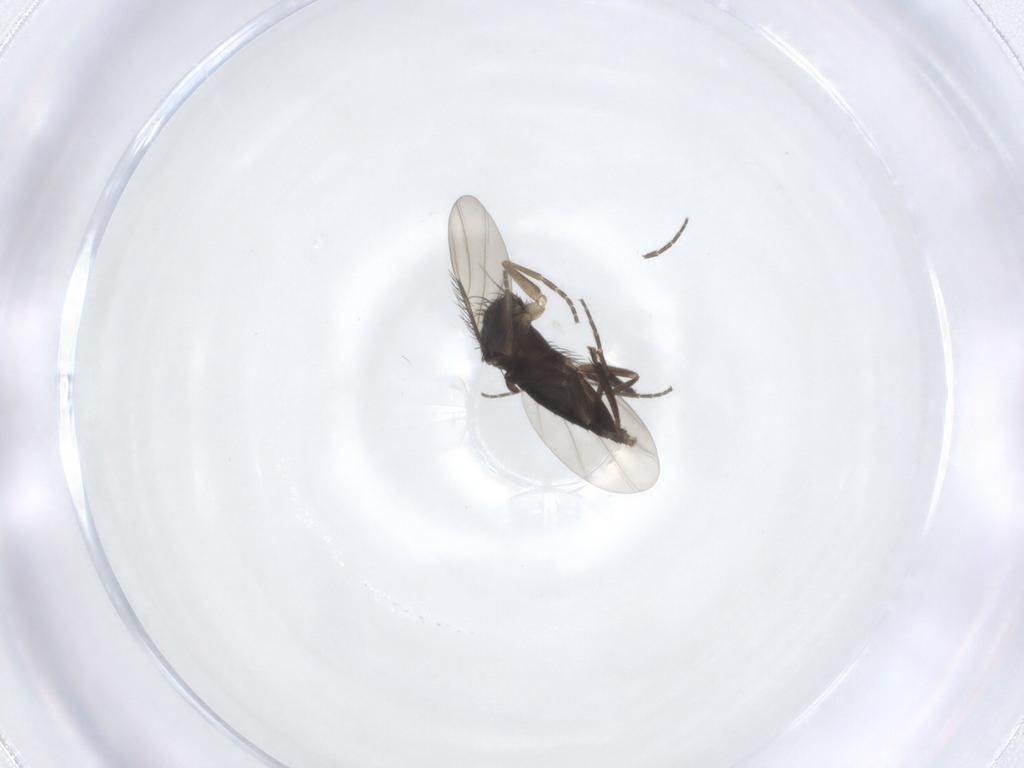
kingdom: Animalia
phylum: Arthropoda
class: Insecta
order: Diptera
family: Phoridae
